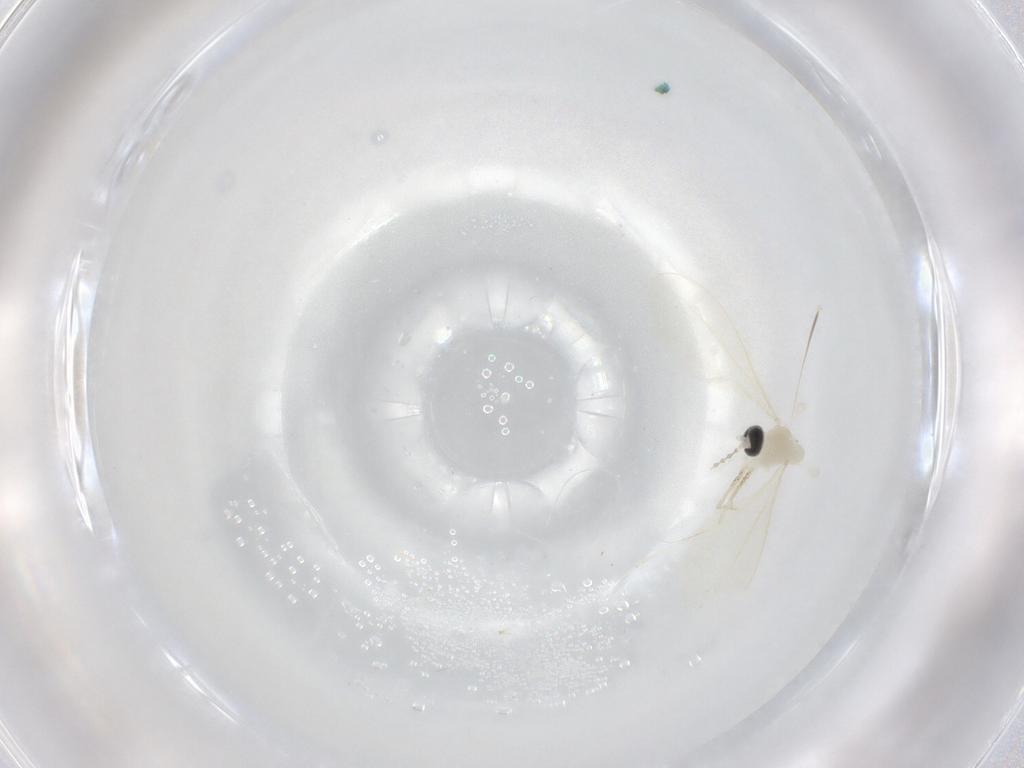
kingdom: Animalia
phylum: Arthropoda
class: Insecta
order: Diptera
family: Cecidomyiidae
